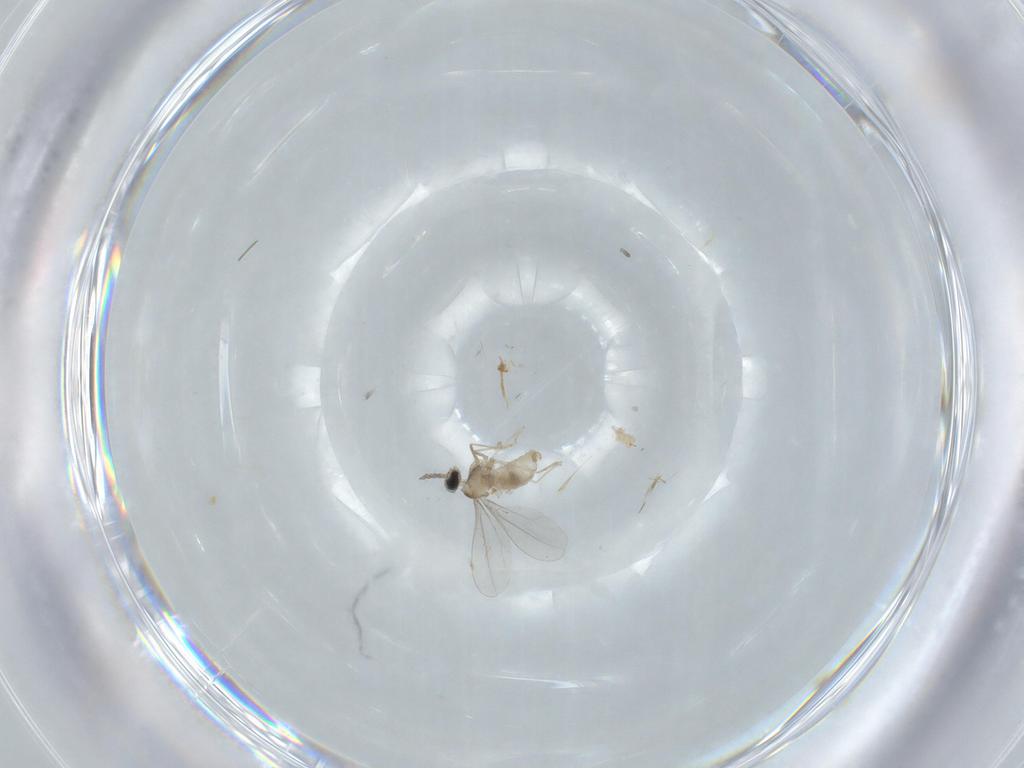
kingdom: Animalia
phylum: Arthropoda
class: Insecta
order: Diptera
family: Cecidomyiidae
